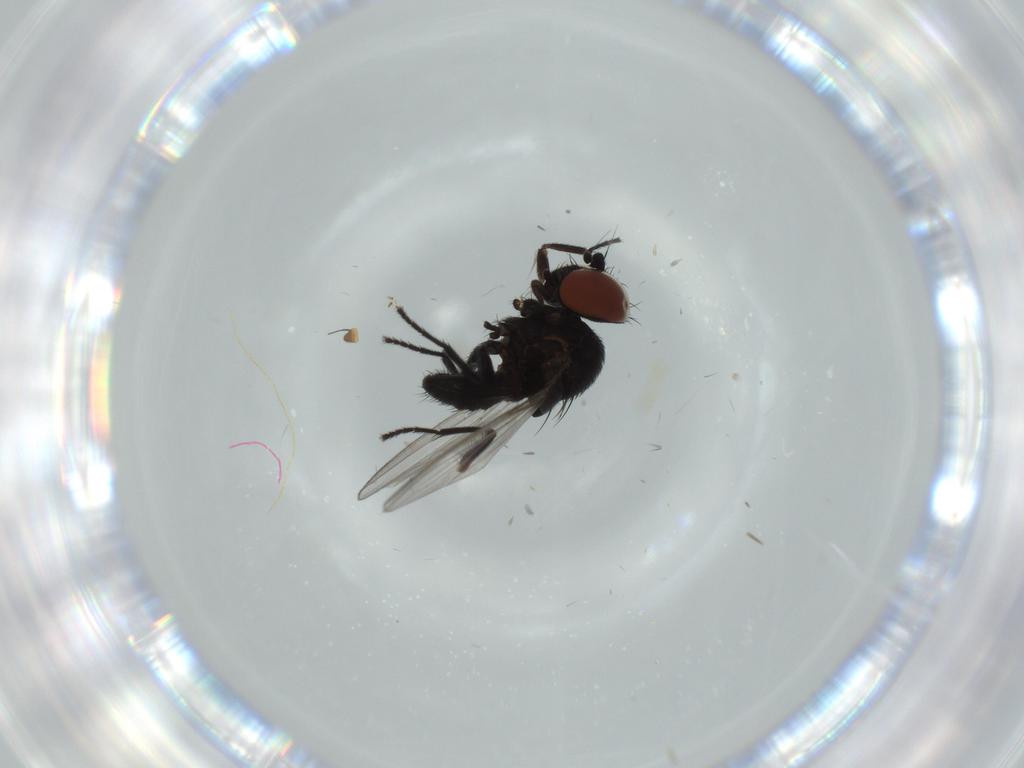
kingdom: Animalia
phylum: Arthropoda
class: Insecta
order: Diptera
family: Milichiidae
